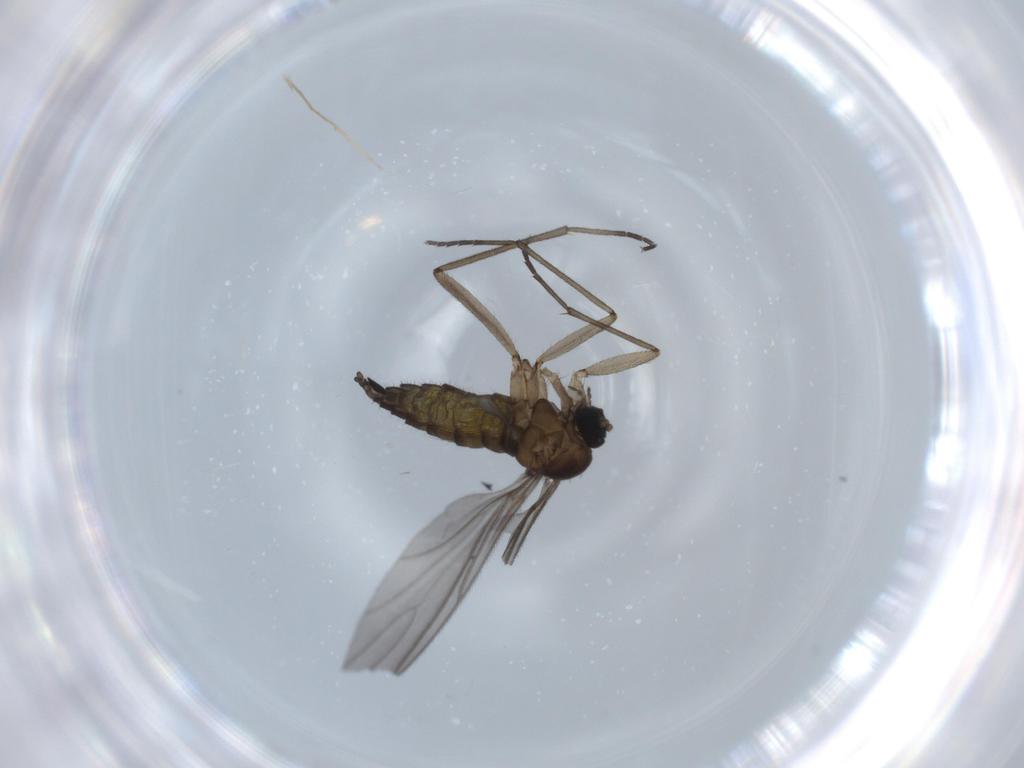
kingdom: Animalia
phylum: Arthropoda
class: Insecta
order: Diptera
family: Sciaridae
